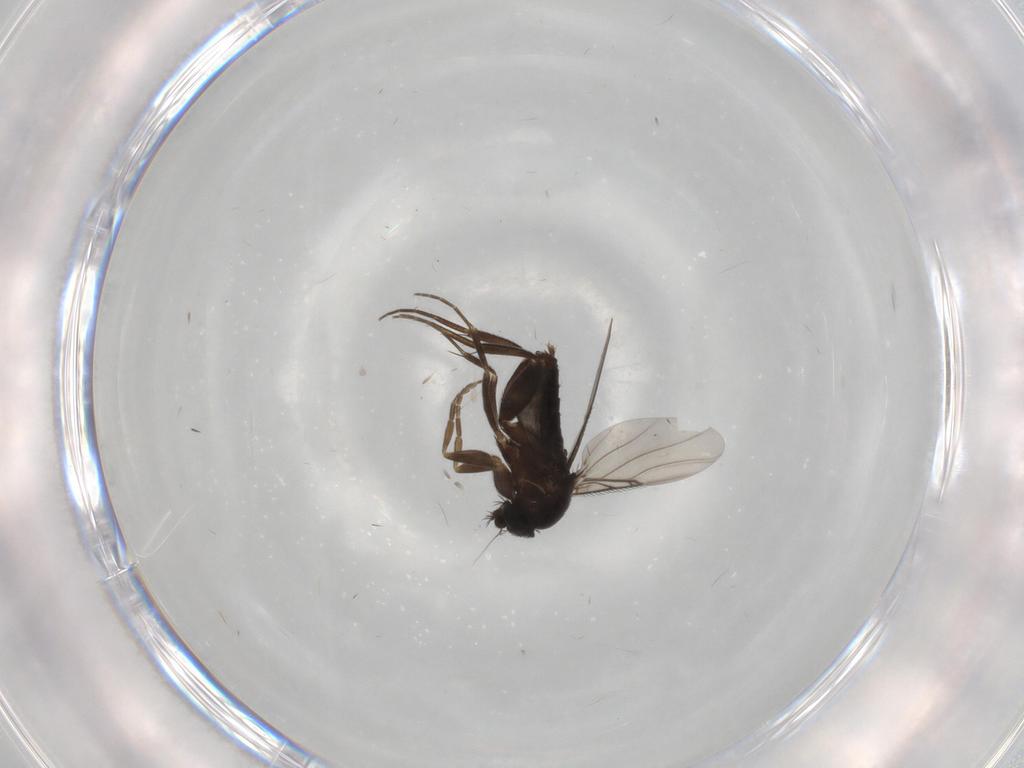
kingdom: Animalia
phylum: Arthropoda
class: Insecta
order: Diptera
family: Phoridae
